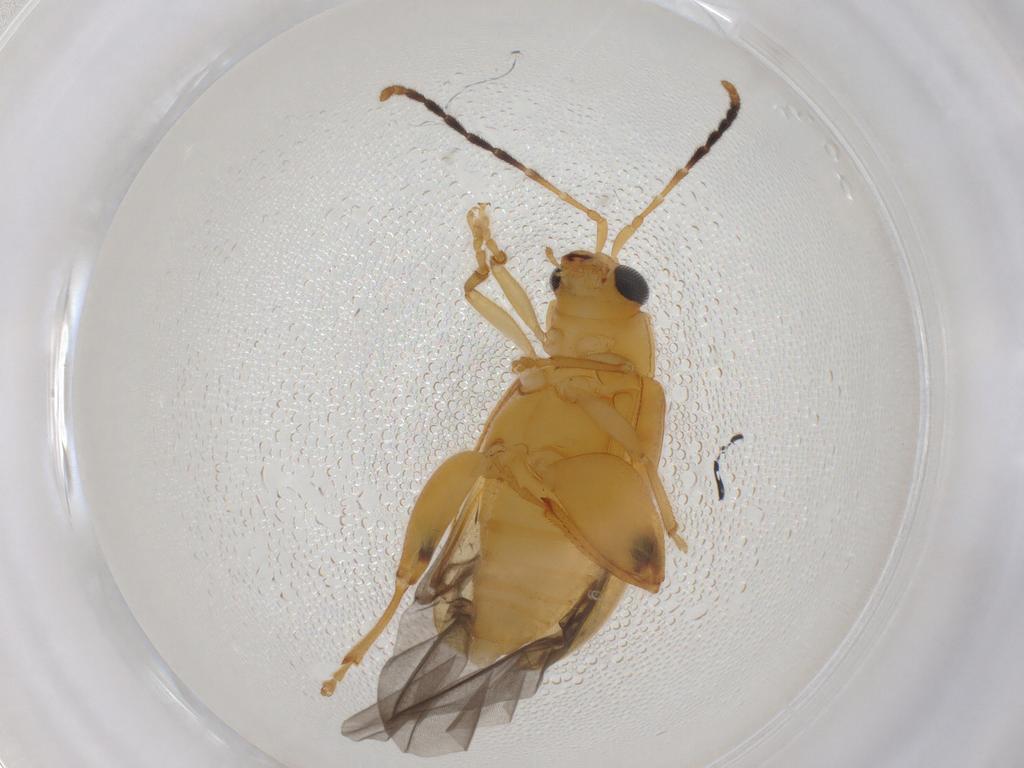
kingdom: Animalia
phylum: Arthropoda
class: Insecta
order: Coleoptera
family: Chrysomelidae
